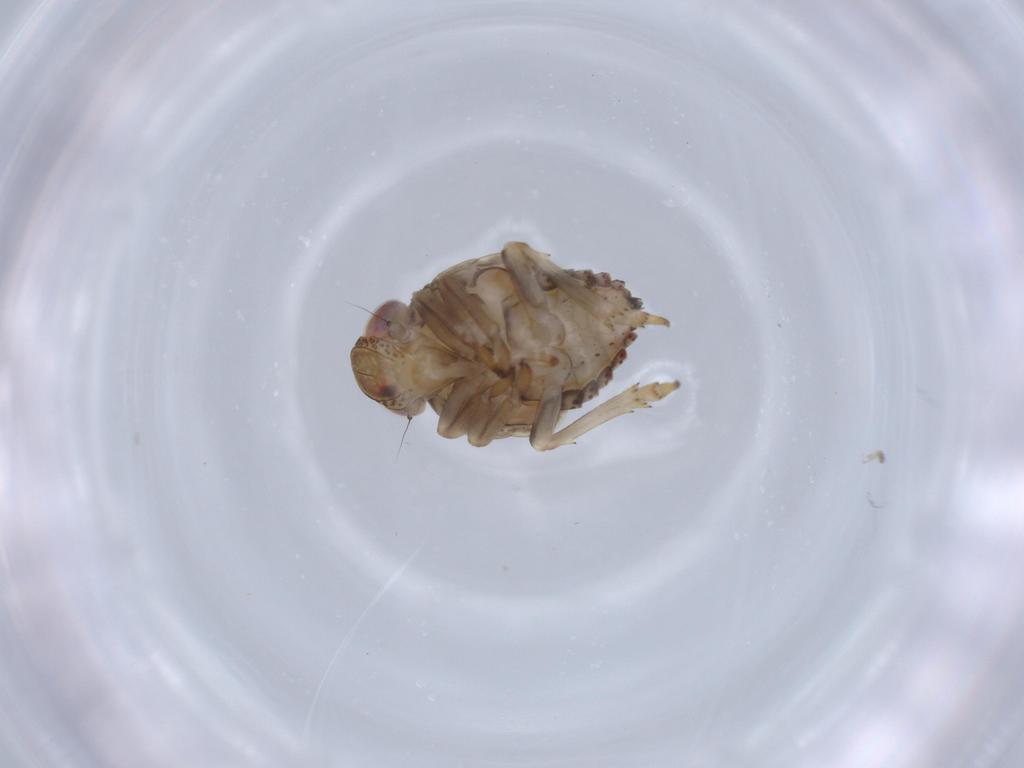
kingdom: Animalia
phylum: Arthropoda
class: Insecta
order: Hemiptera
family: Issidae
